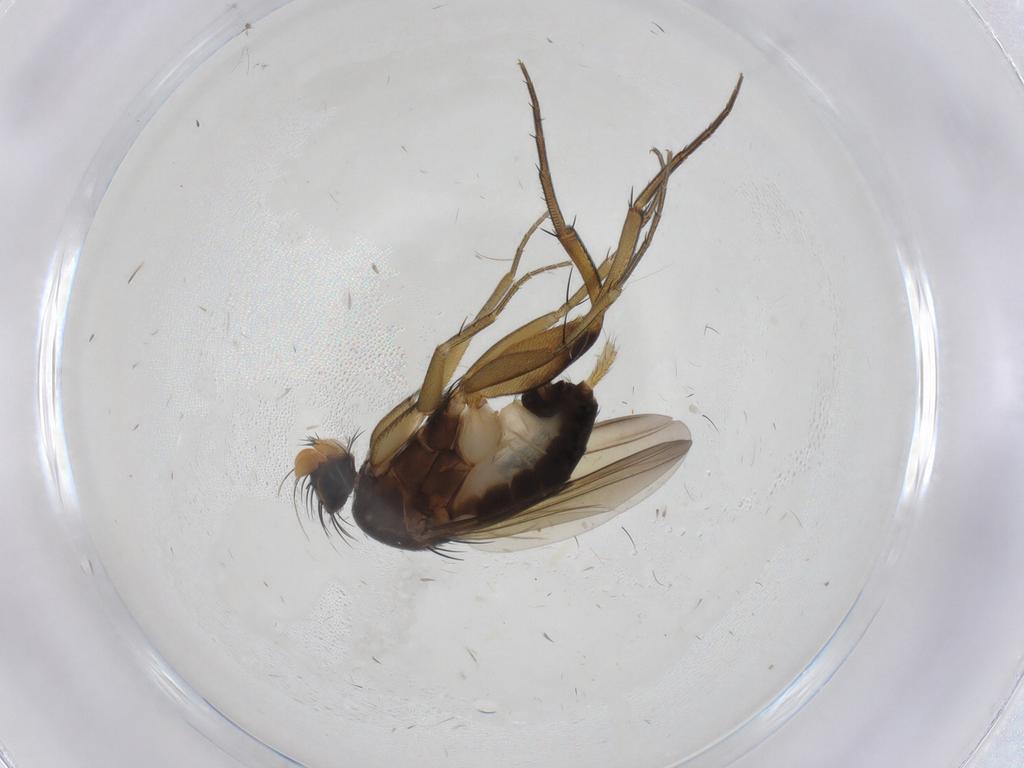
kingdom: Animalia
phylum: Arthropoda
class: Insecta
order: Diptera
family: Phoridae
